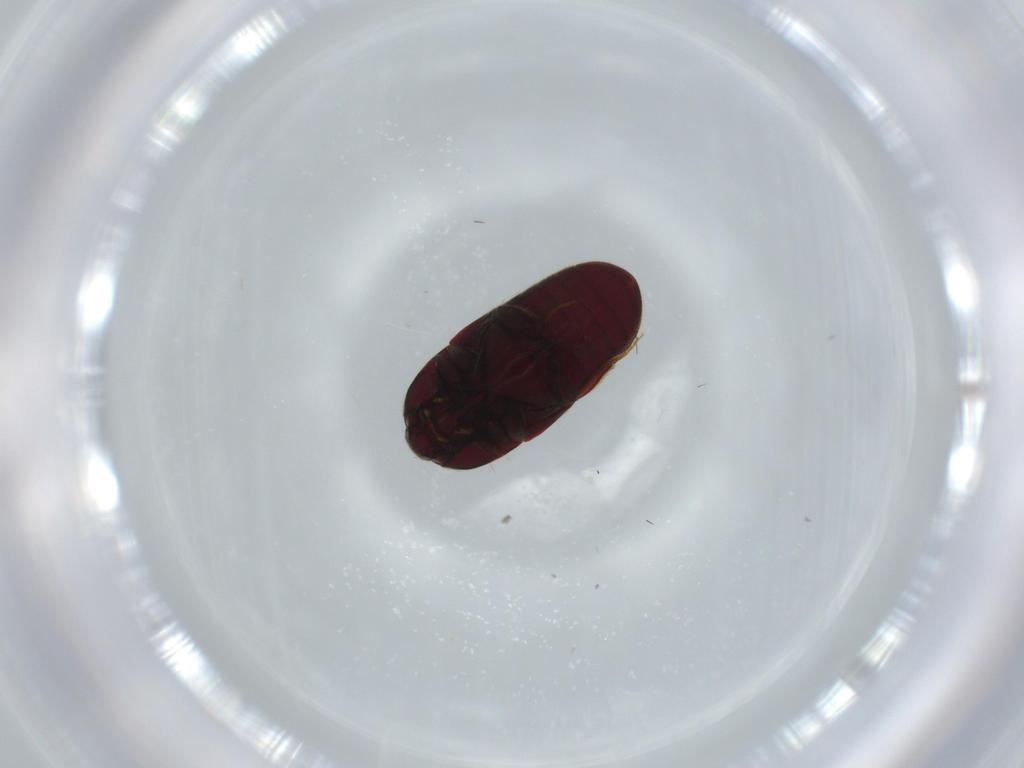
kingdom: Animalia
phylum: Arthropoda
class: Insecta
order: Coleoptera
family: Throscidae
